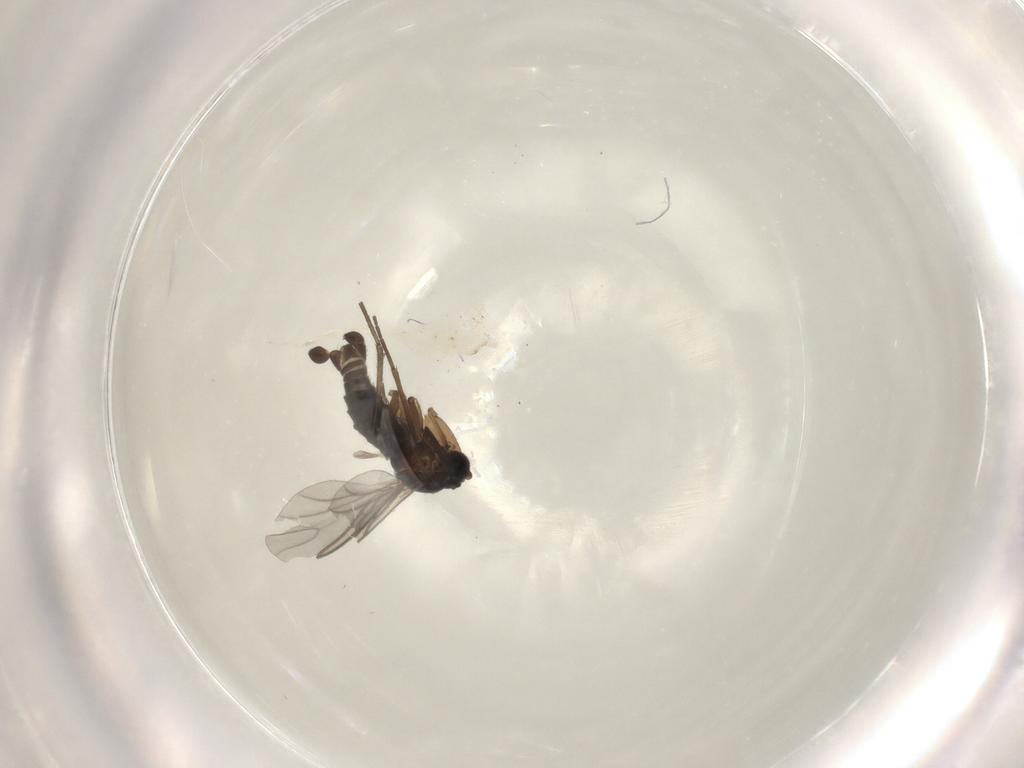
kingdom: Animalia
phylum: Arthropoda
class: Insecta
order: Diptera
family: Sciaridae
